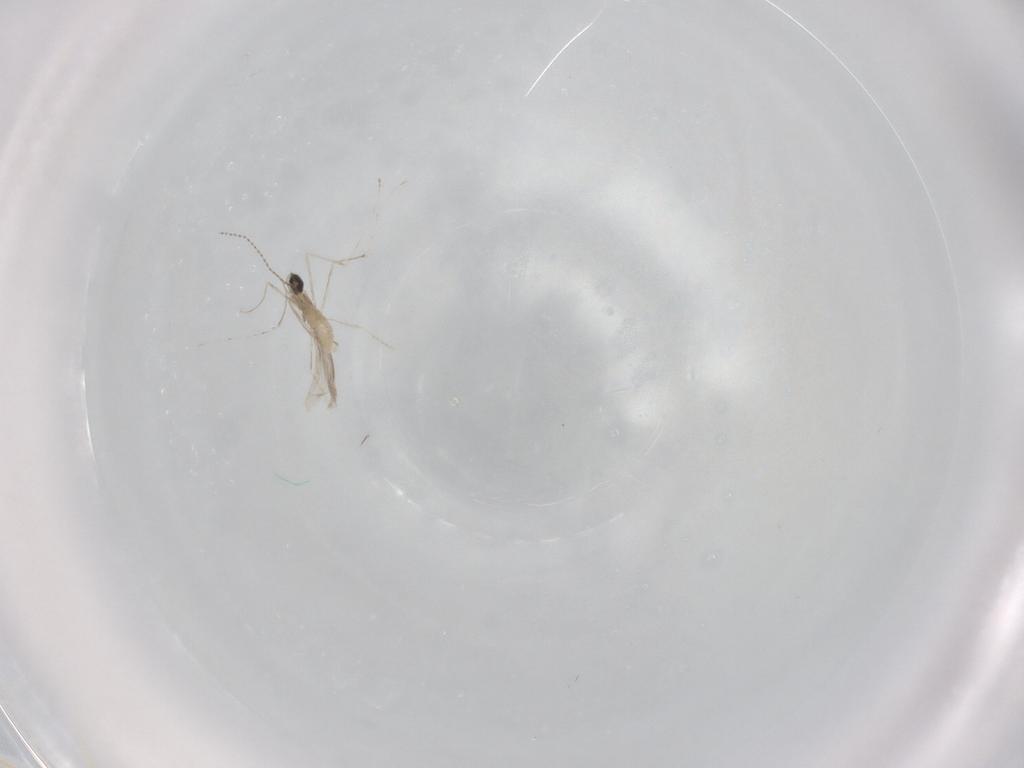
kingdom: Animalia
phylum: Arthropoda
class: Insecta
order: Diptera
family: Cecidomyiidae
